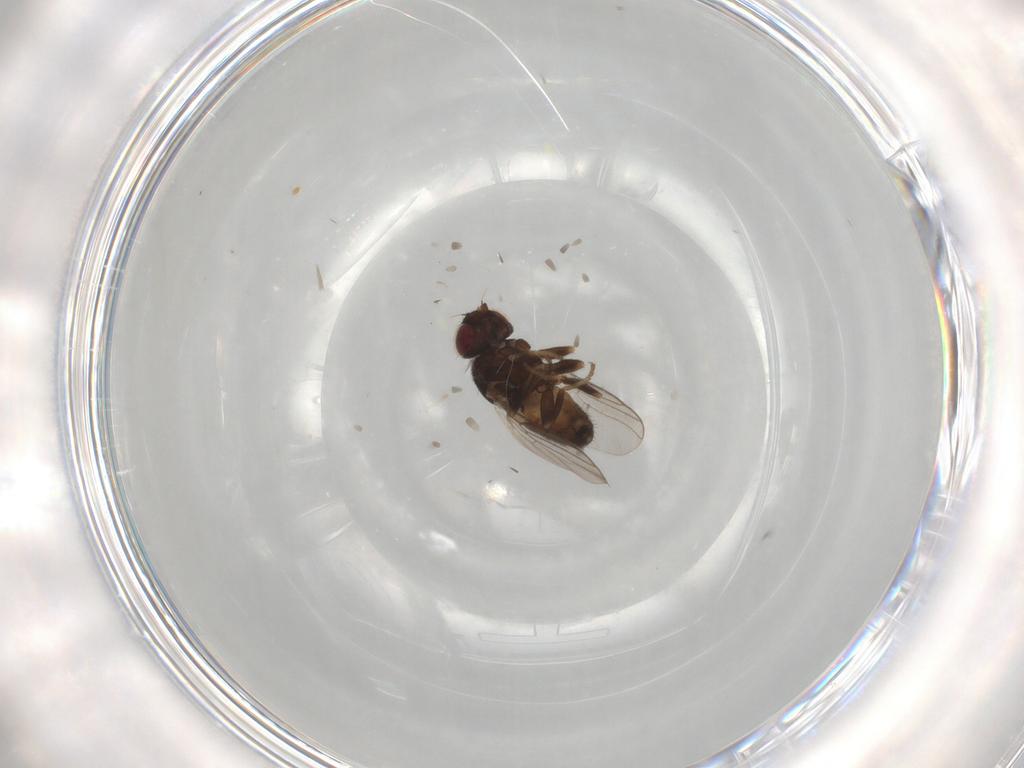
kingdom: Animalia
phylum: Arthropoda
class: Insecta
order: Diptera
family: Chloropidae
